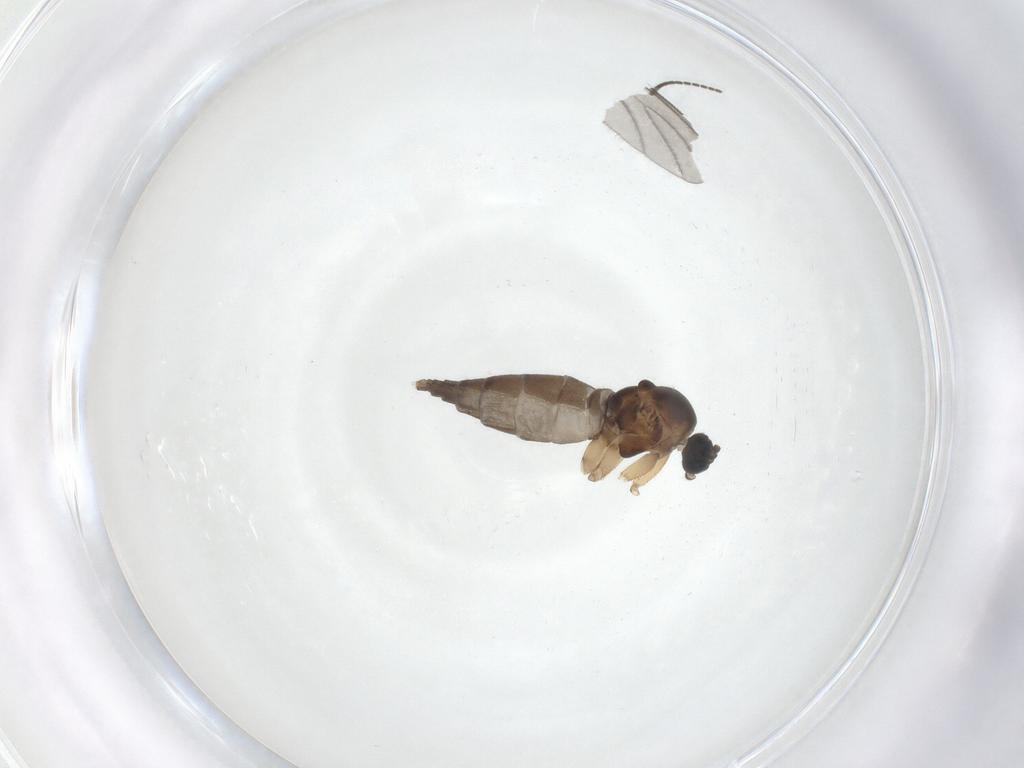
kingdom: Animalia
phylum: Arthropoda
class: Insecta
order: Diptera
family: Sciaridae
